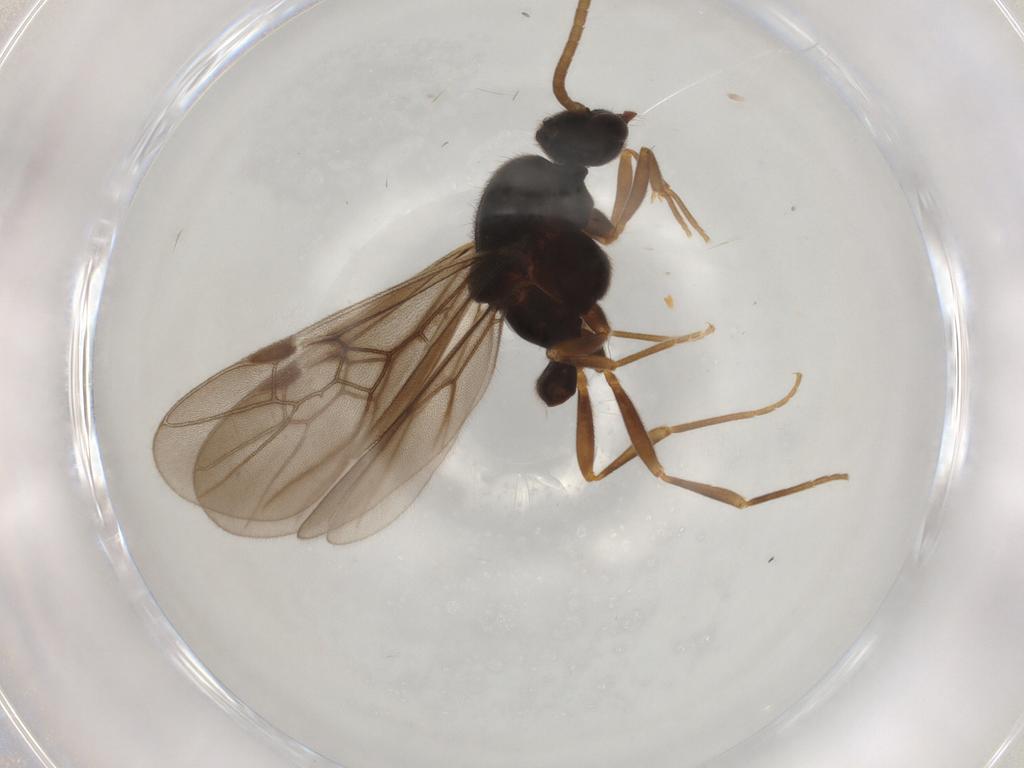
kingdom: Animalia
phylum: Arthropoda
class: Insecta
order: Hymenoptera
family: Formicidae
